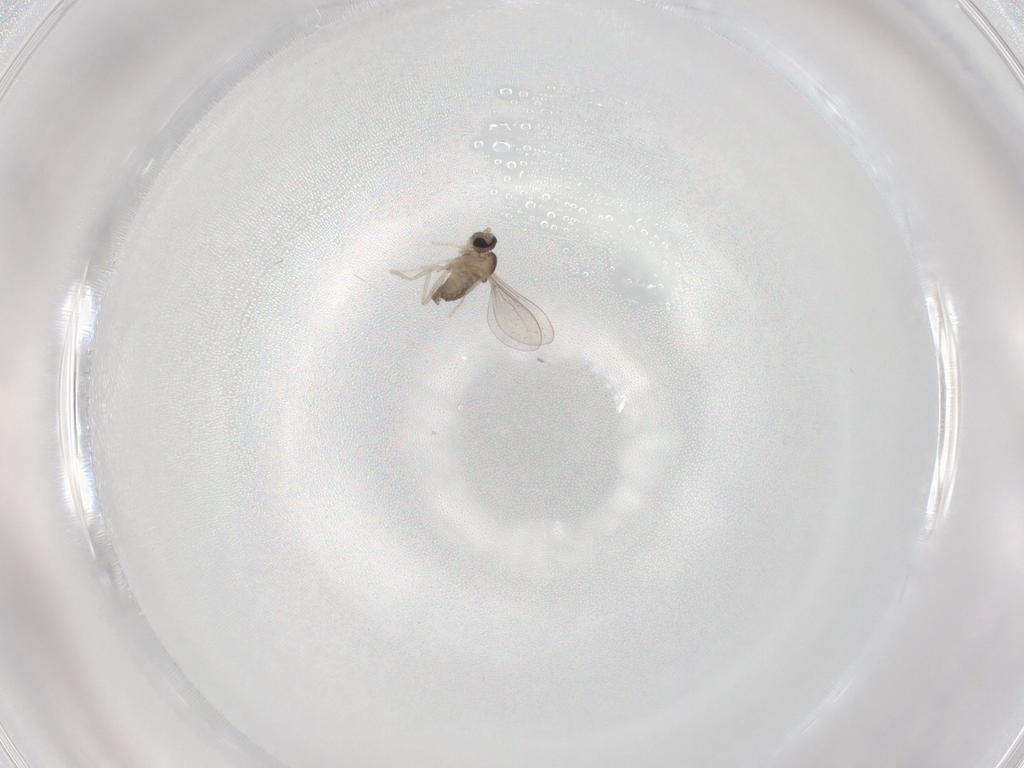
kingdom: Animalia
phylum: Arthropoda
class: Insecta
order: Diptera
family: Cecidomyiidae
